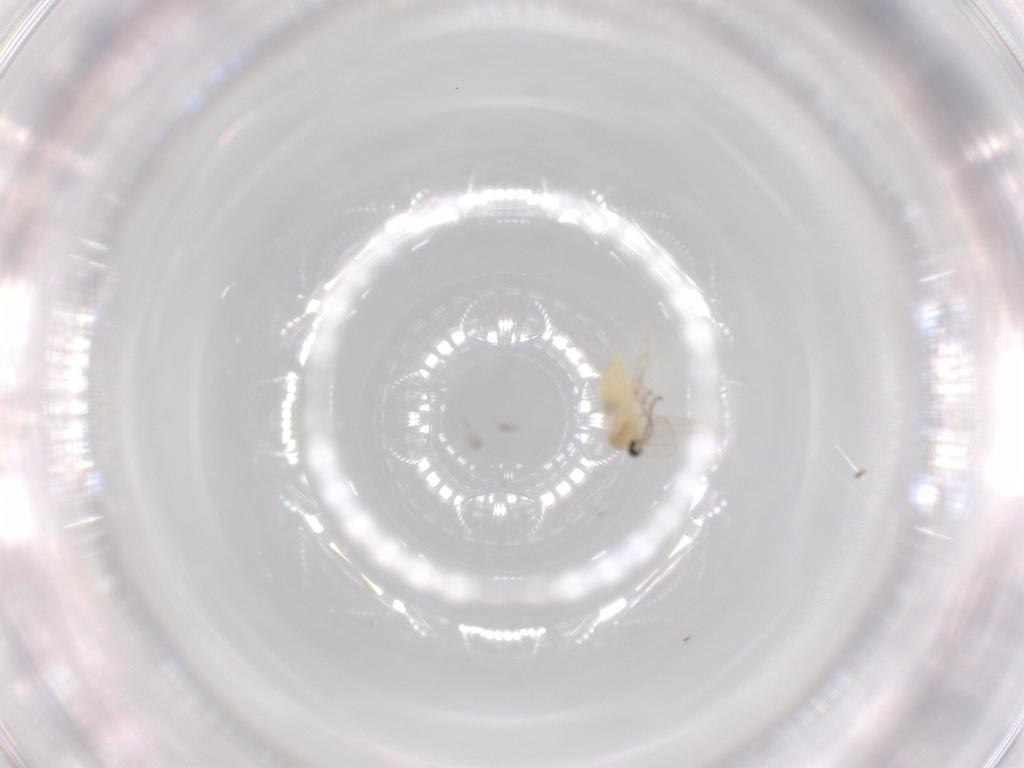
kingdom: Animalia
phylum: Arthropoda
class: Insecta
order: Diptera
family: Cecidomyiidae
